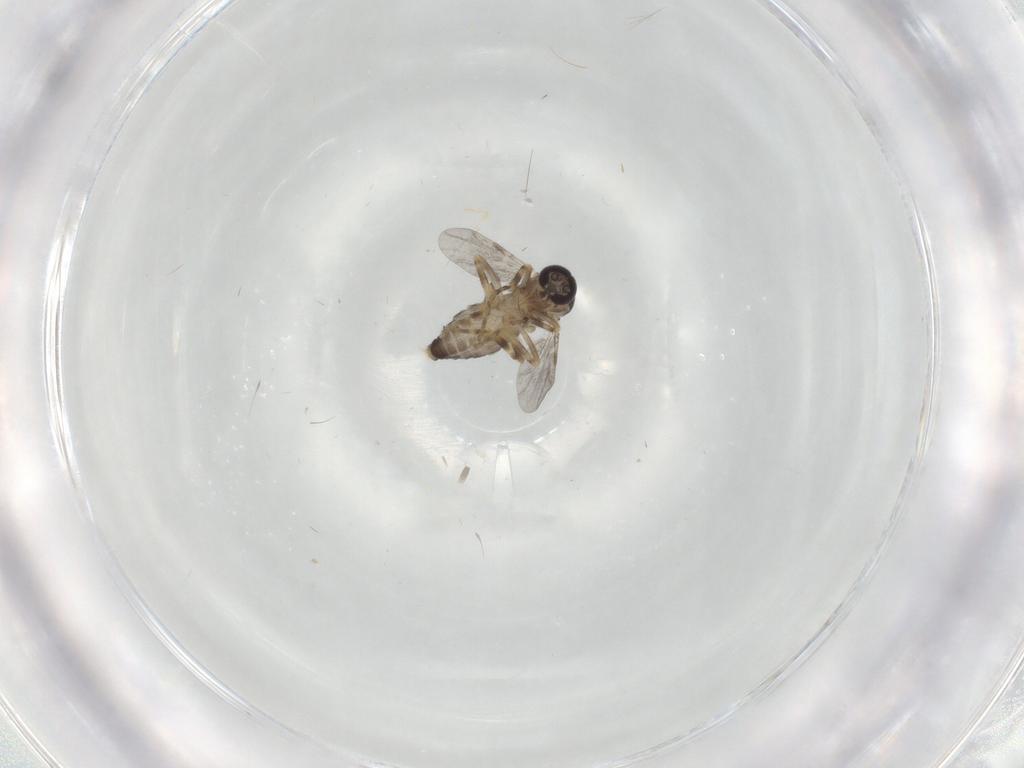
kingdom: Animalia
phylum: Arthropoda
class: Insecta
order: Diptera
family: Ceratopogonidae
